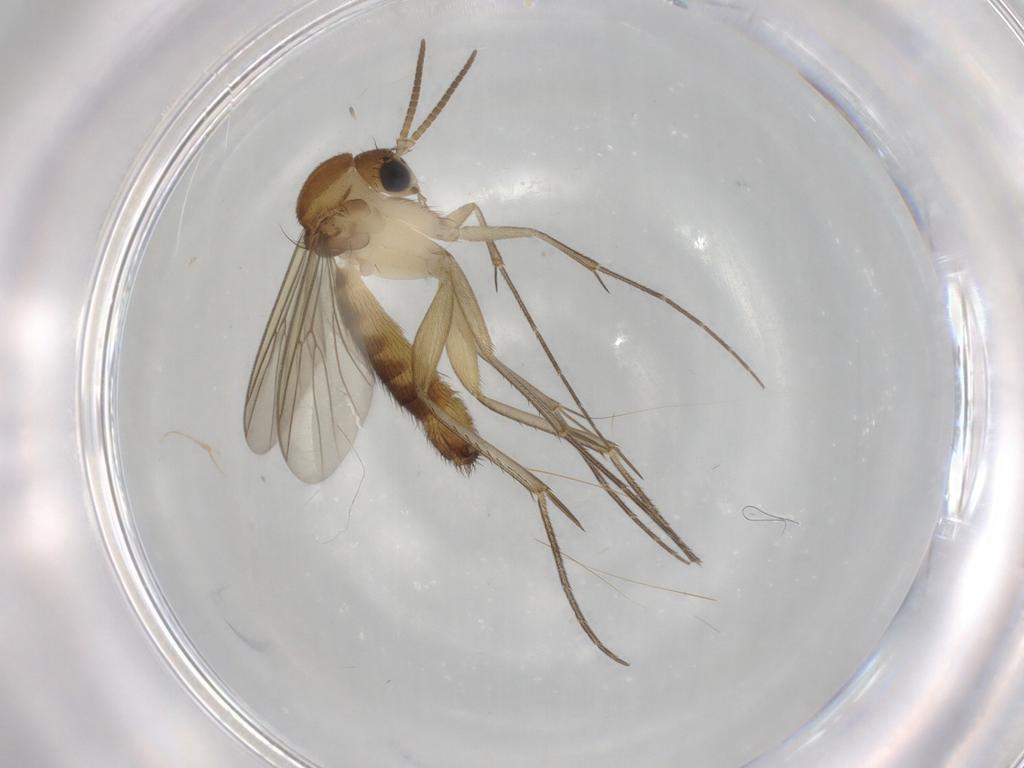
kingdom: Animalia
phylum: Arthropoda
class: Insecta
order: Diptera
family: Mycetophilidae
